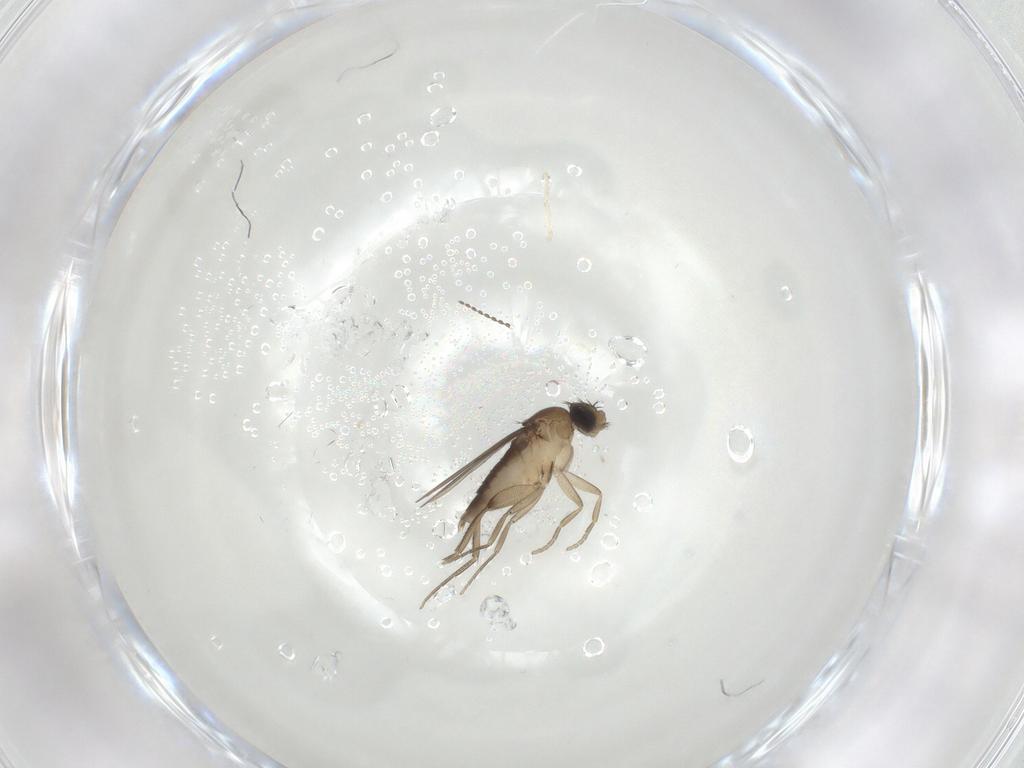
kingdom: Animalia
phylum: Arthropoda
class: Insecta
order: Diptera
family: Phoridae
